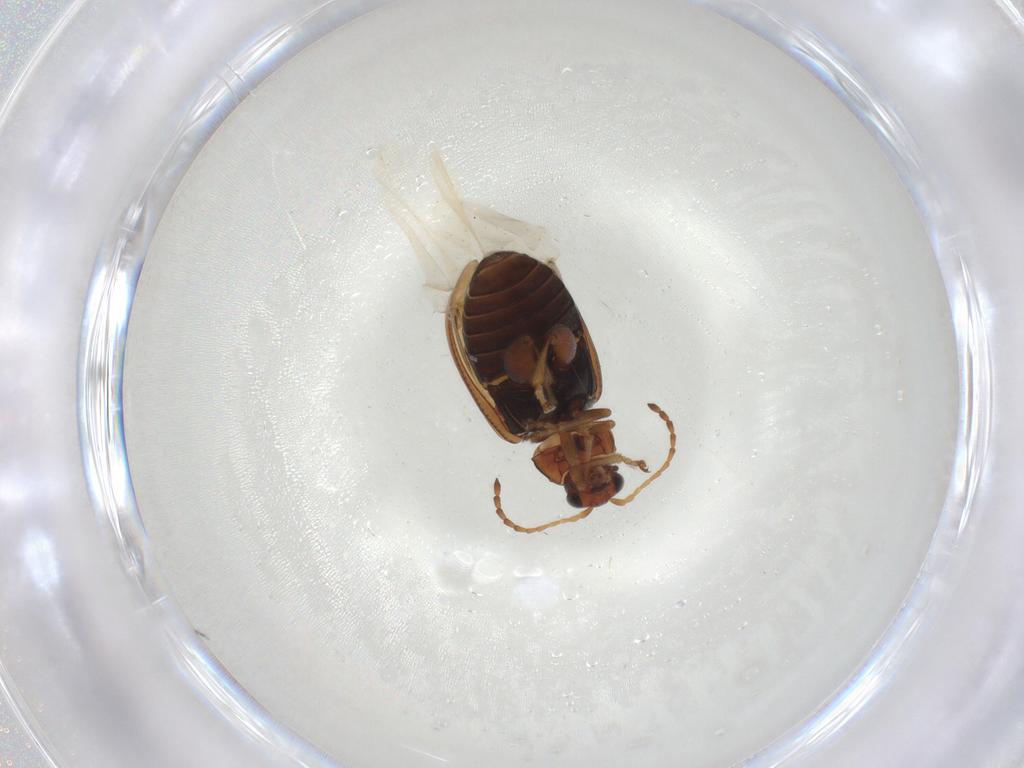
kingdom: Animalia
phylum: Arthropoda
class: Insecta
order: Coleoptera
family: Chrysomelidae
